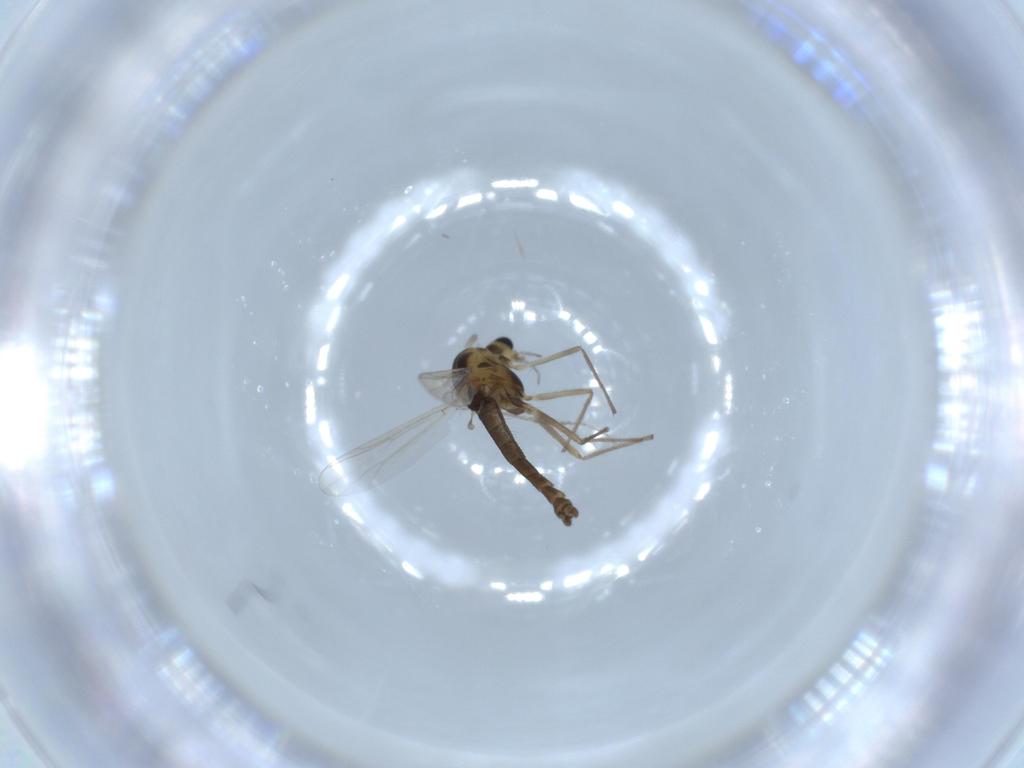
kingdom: Animalia
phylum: Arthropoda
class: Insecta
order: Diptera
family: Chironomidae
